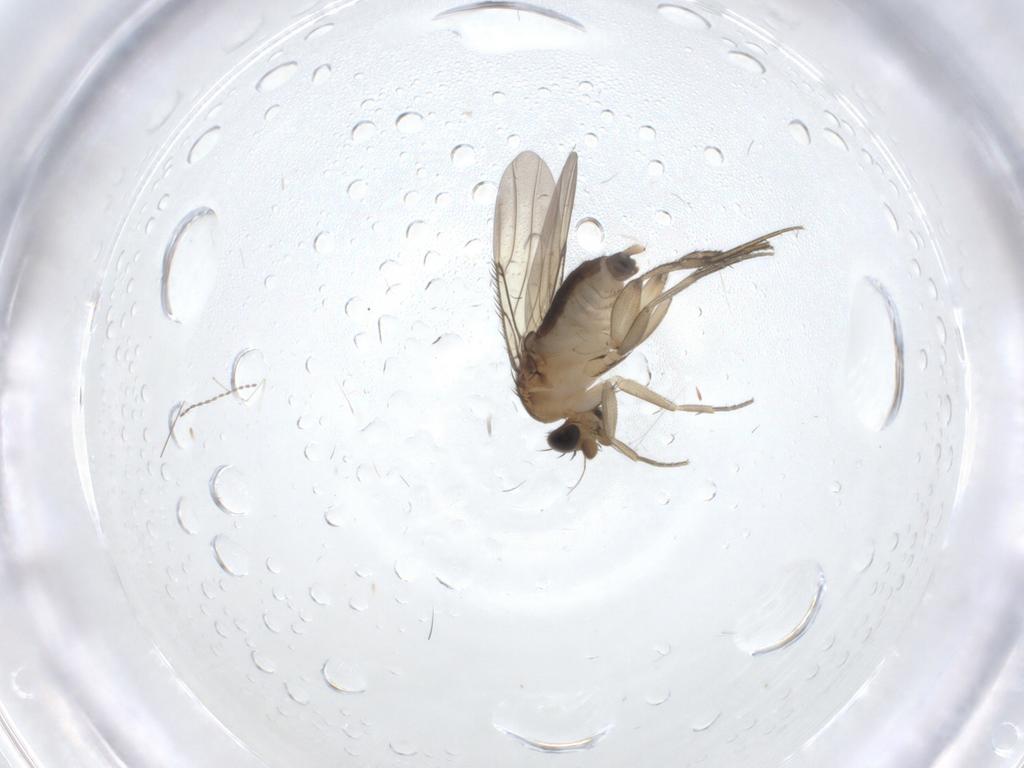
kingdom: Animalia
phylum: Arthropoda
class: Insecta
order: Diptera
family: Phoridae
